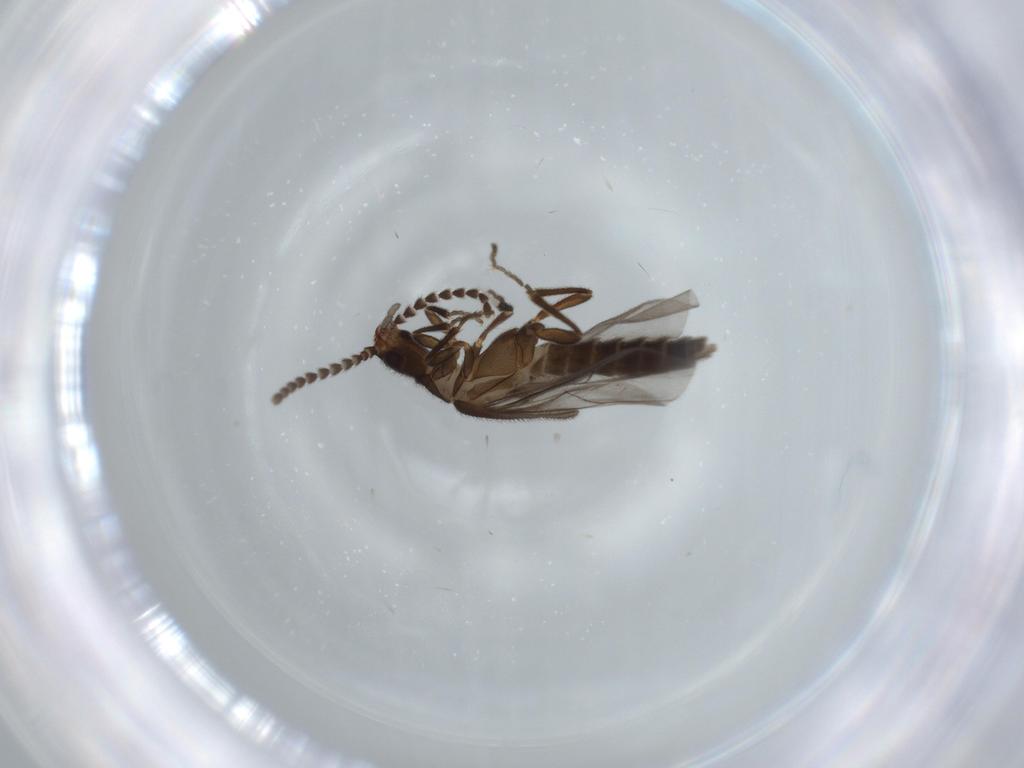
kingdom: Animalia
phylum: Arthropoda
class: Insecta
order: Coleoptera
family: Omethidae
